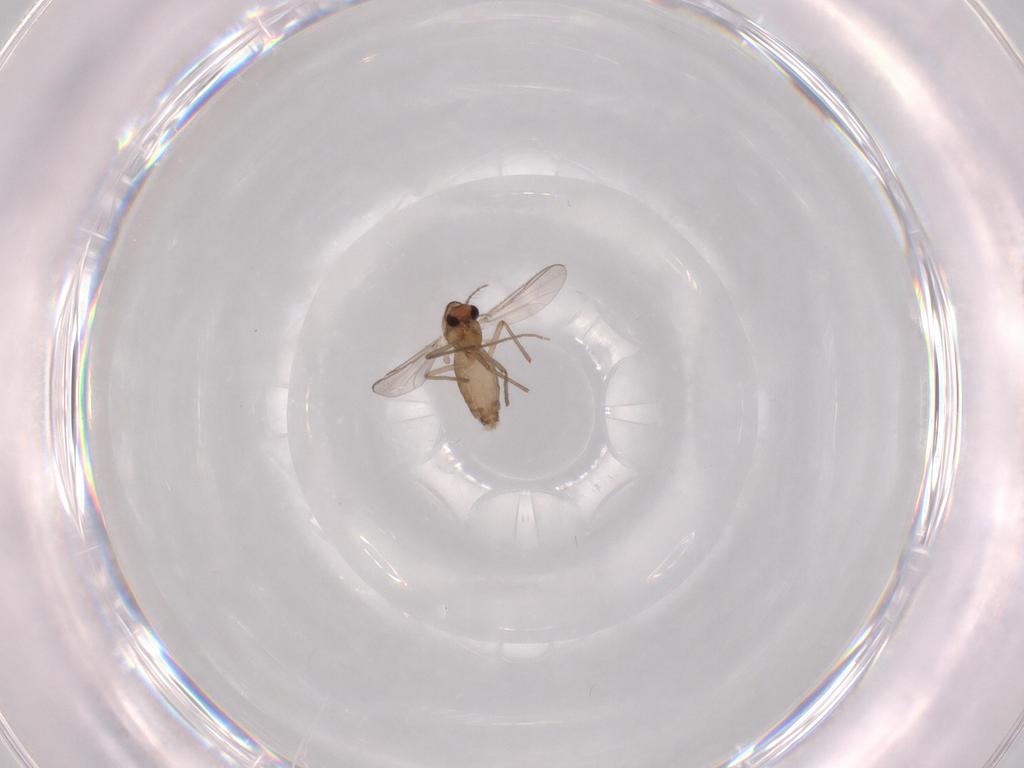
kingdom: Animalia
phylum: Arthropoda
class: Insecta
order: Diptera
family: Chironomidae
